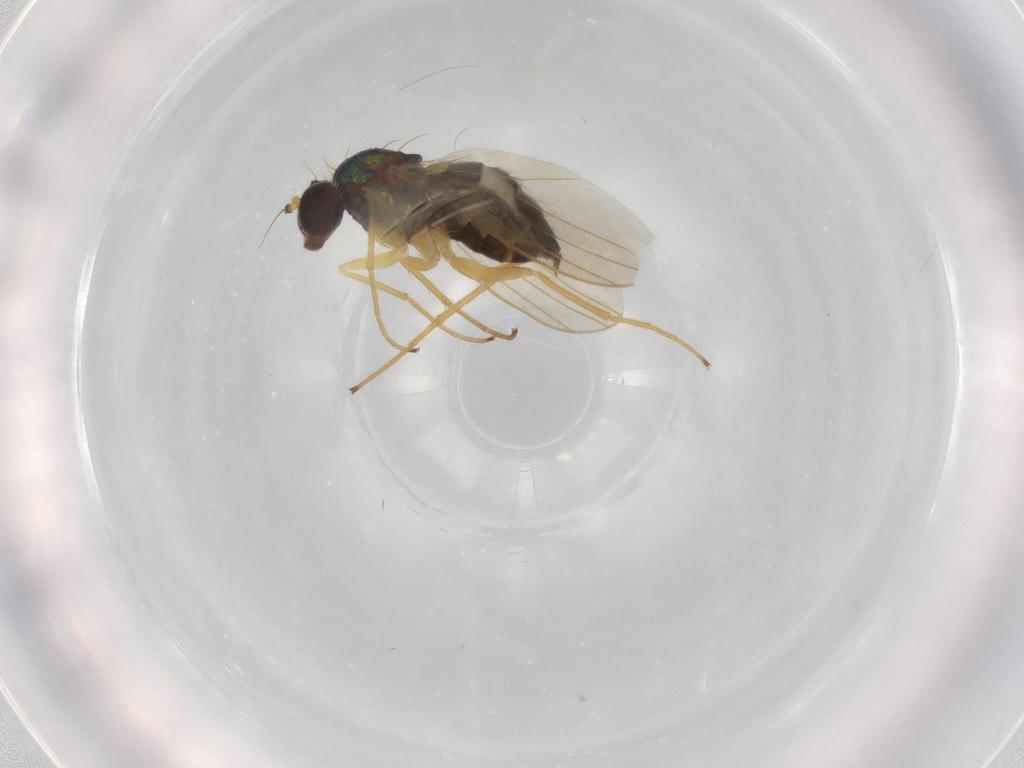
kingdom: Animalia
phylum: Arthropoda
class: Insecta
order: Diptera
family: Dolichopodidae
